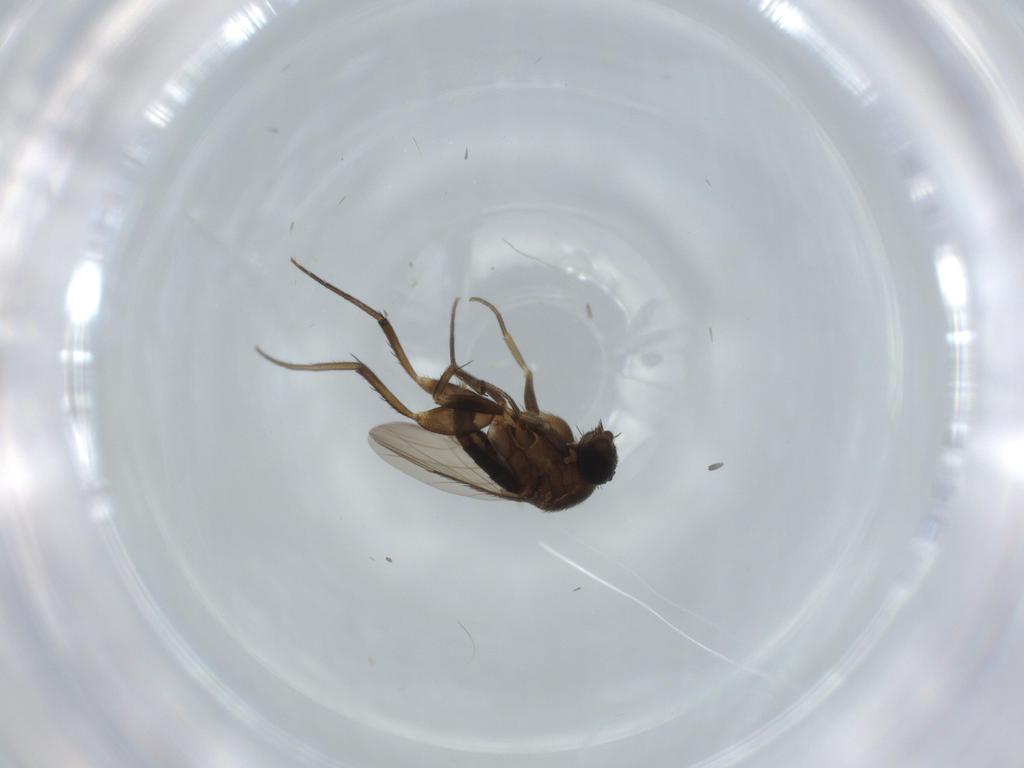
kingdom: Animalia
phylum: Arthropoda
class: Insecta
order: Diptera
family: Phoridae
